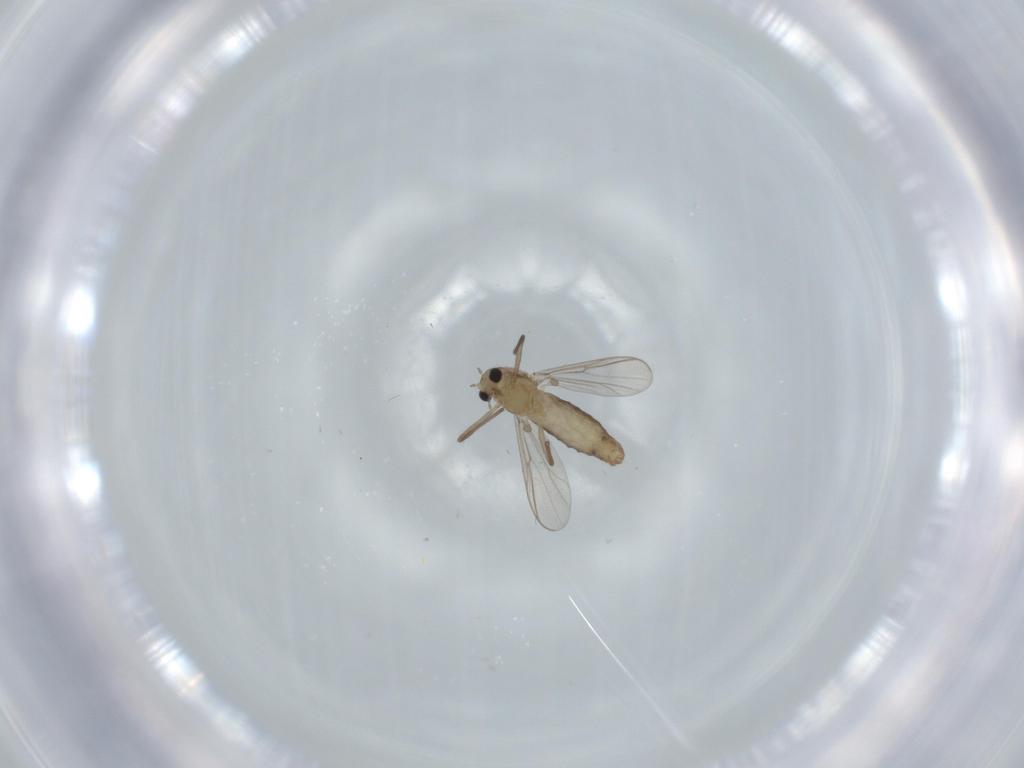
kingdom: Animalia
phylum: Arthropoda
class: Insecta
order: Diptera
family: Chironomidae
